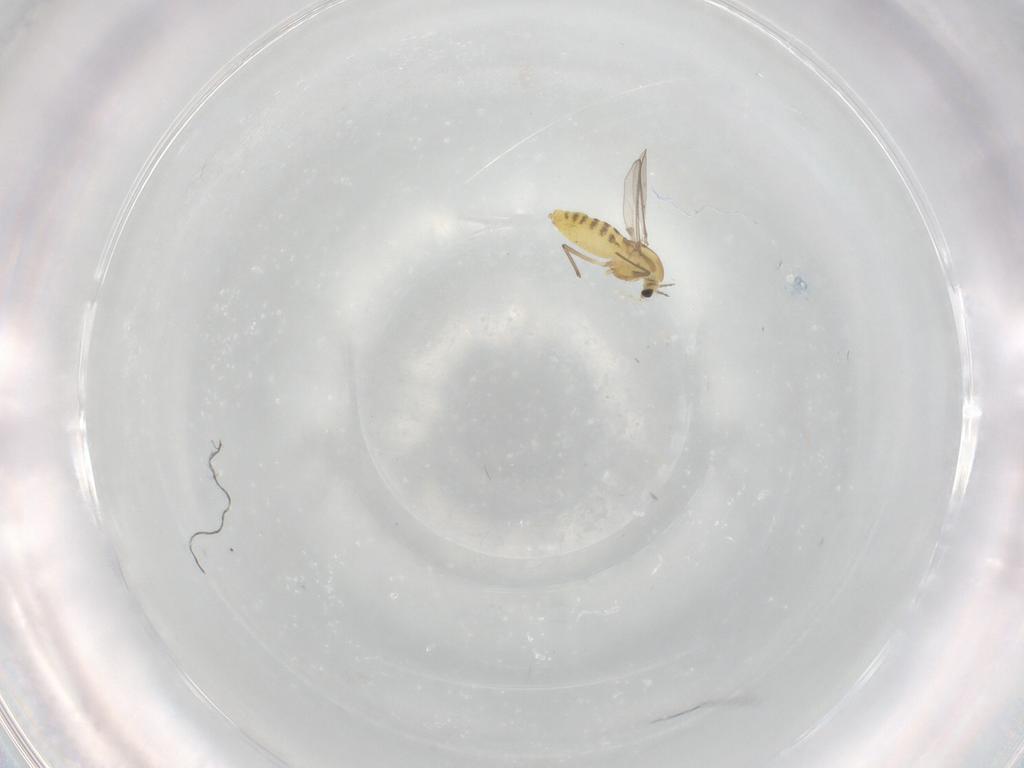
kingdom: Animalia
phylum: Arthropoda
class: Insecta
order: Diptera
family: Chironomidae
